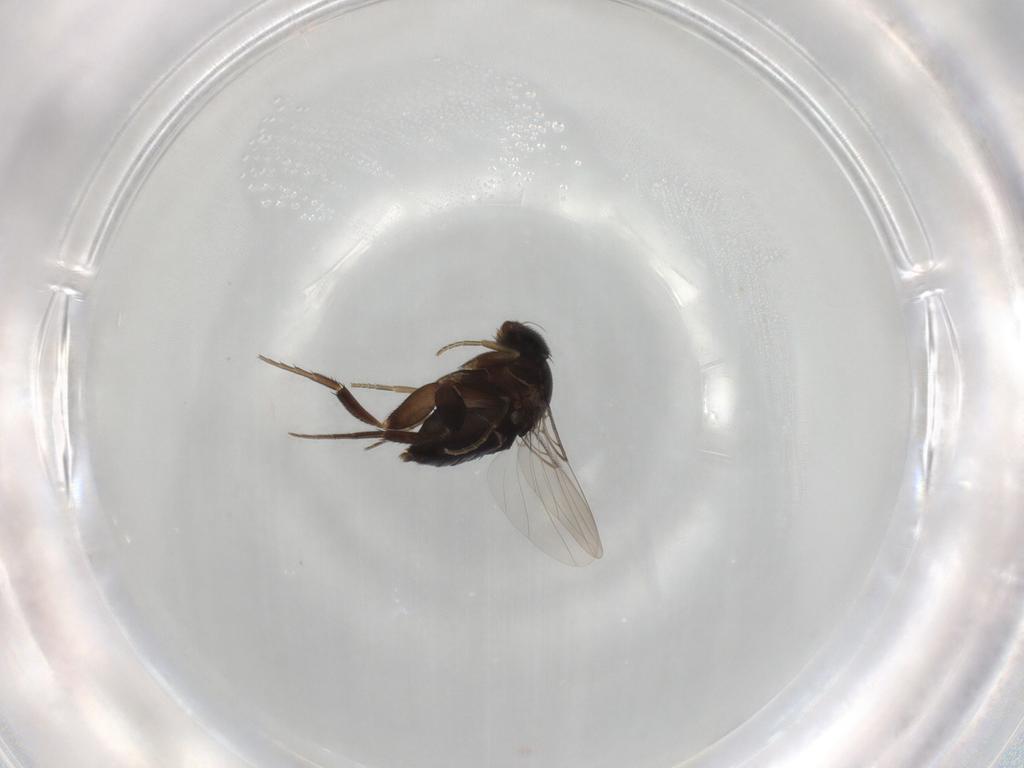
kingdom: Animalia
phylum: Arthropoda
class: Insecta
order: Diptera
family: Phoridae
